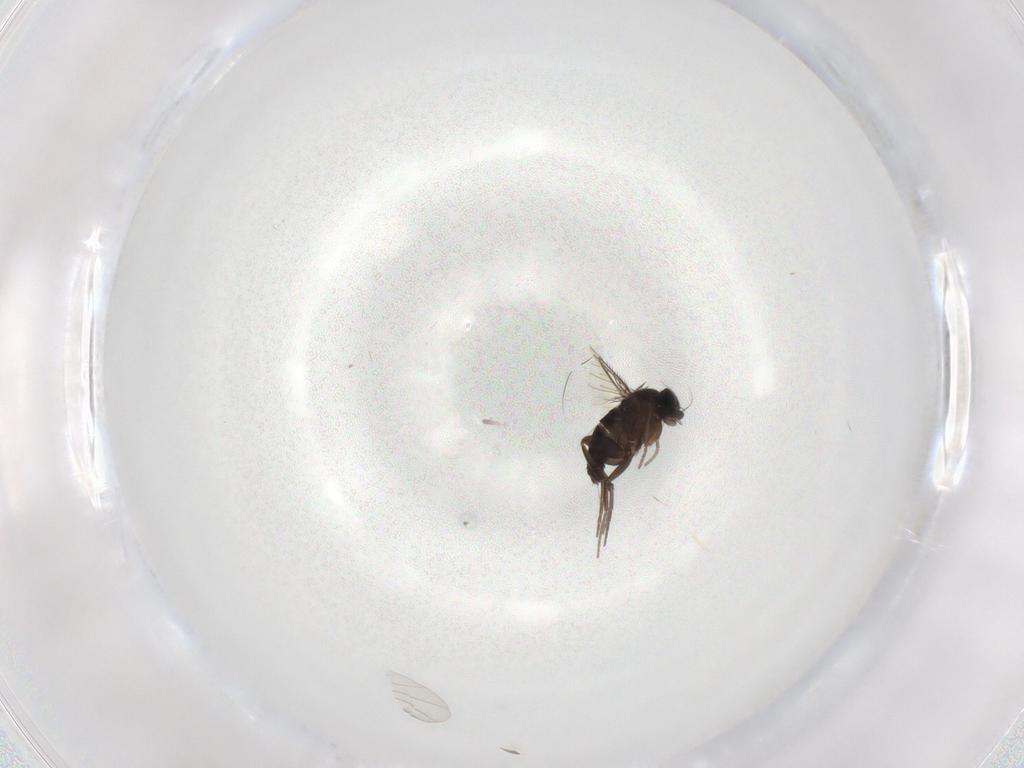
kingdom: Animalia
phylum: Arthropoda
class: Insecta
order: Diptera
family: Phoridae
